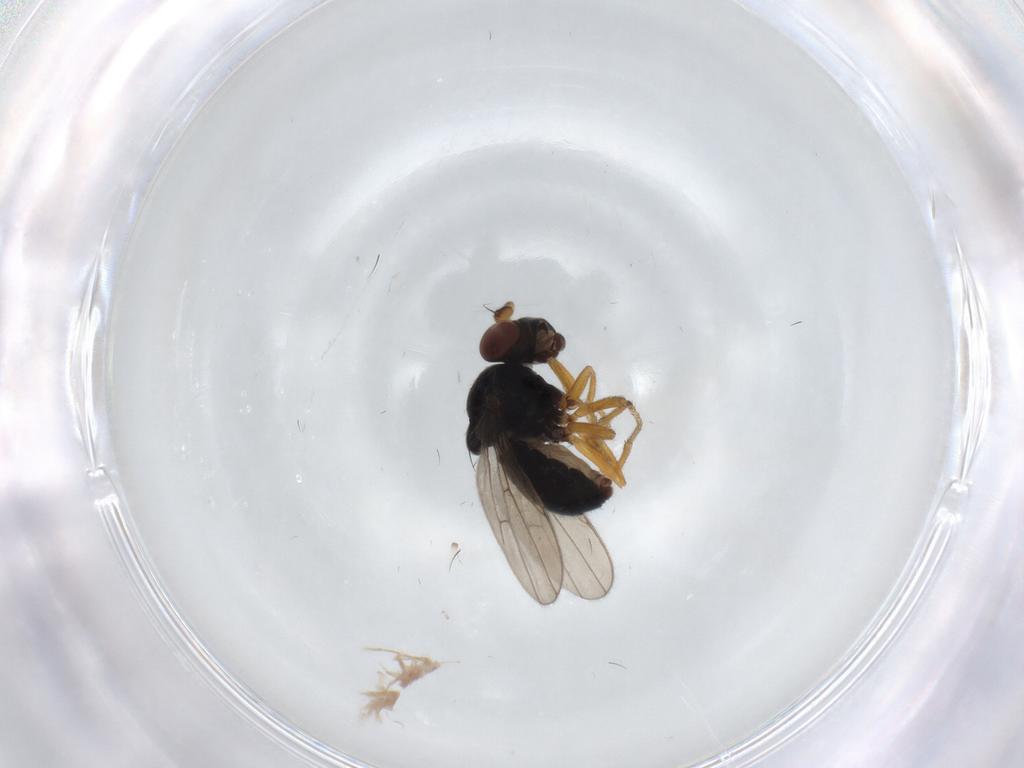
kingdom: Animalia
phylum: Arthropoda
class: Insecta
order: Diptera
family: Ephydridae
